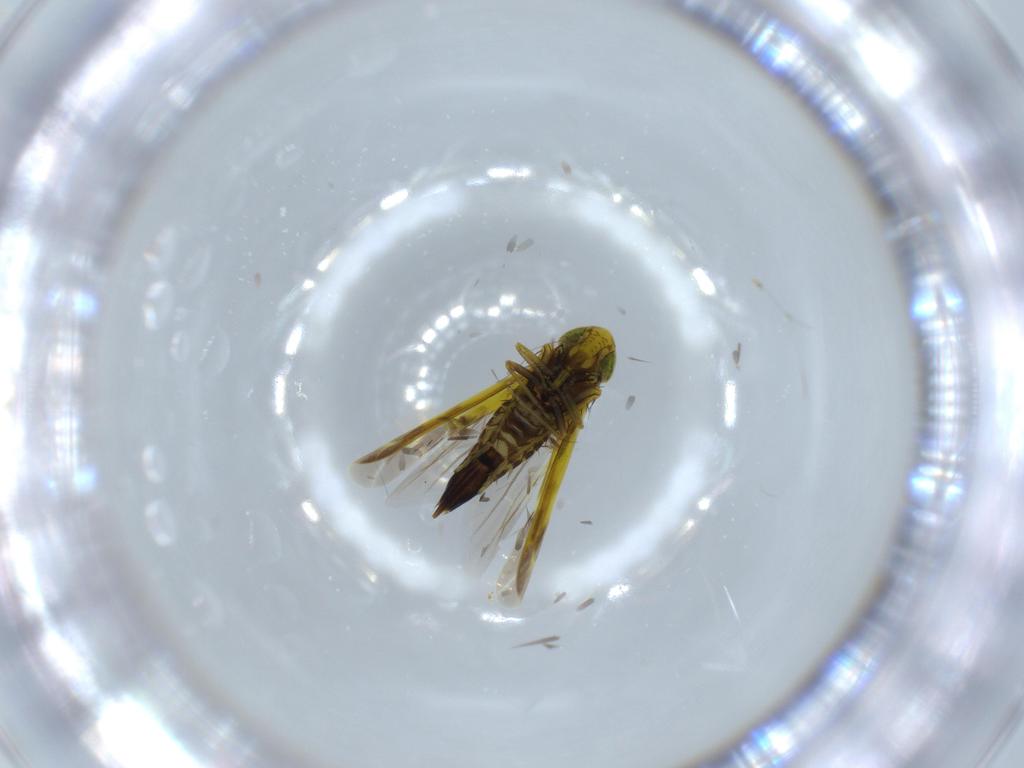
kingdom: Animalia
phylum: Arthropoda
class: Insecta
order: Hemiptera
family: Cicadellidae
